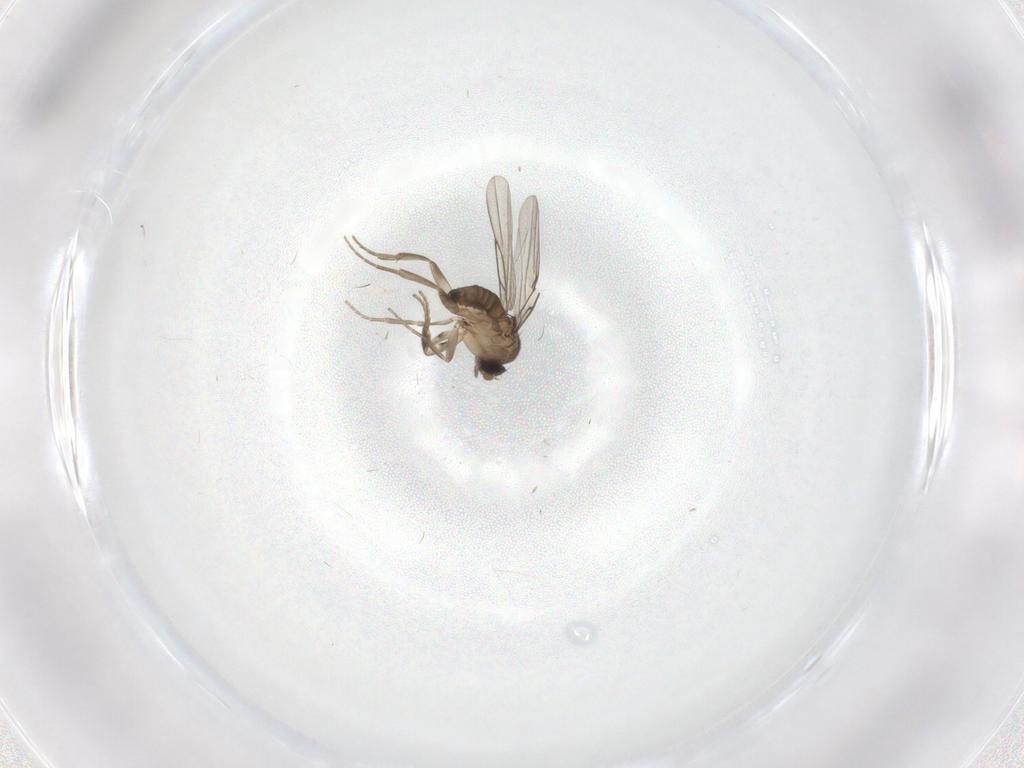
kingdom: Animalia
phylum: Arthropoda
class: Insecta
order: Diptera
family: Phoridae
